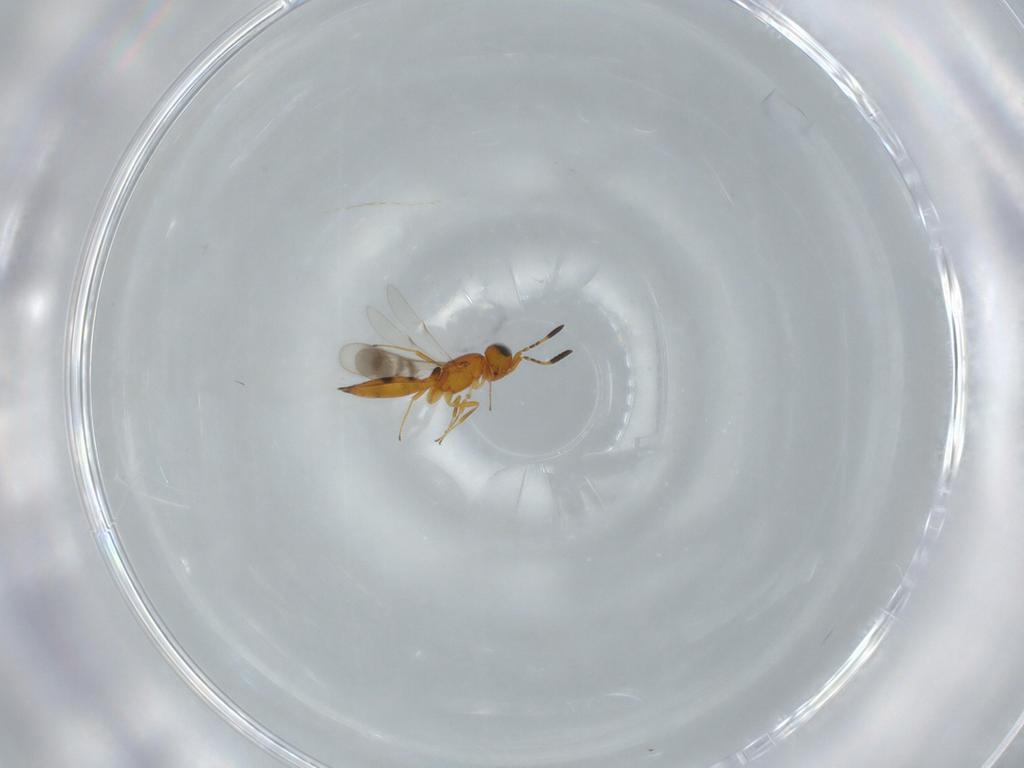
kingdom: Animalia
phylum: Arthropoda
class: Insecta
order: Hymenoptera
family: Scelionidae
